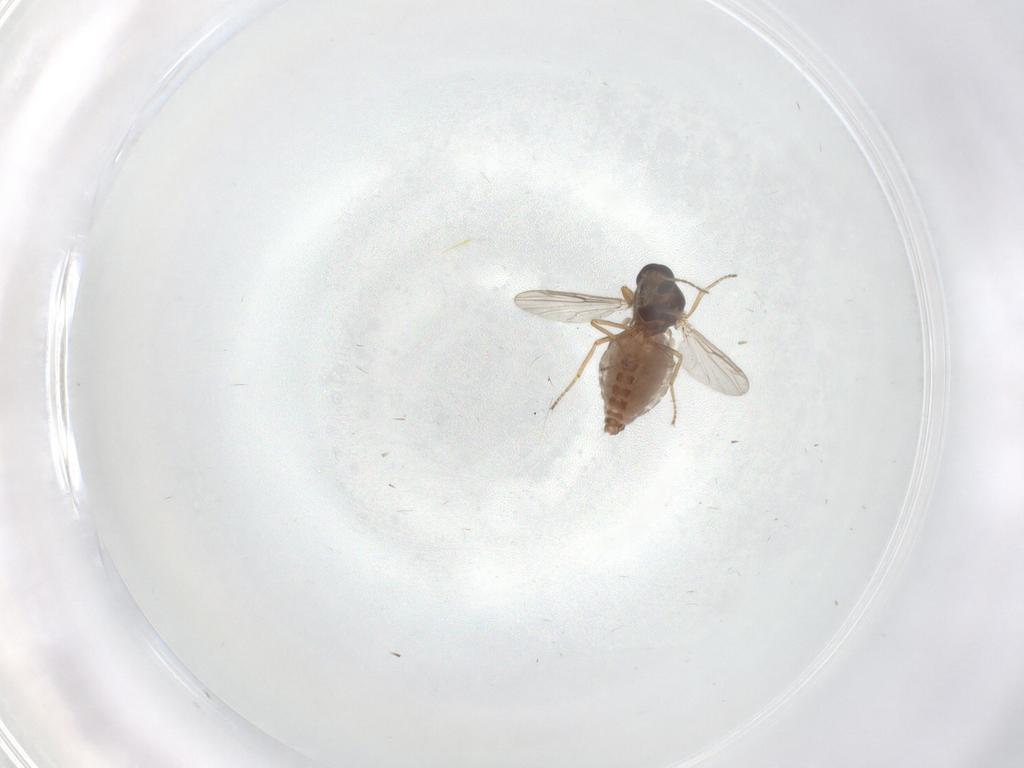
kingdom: Animalia
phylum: Arthropoda
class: Insecta
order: Diptera
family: Ceratopogonidae
